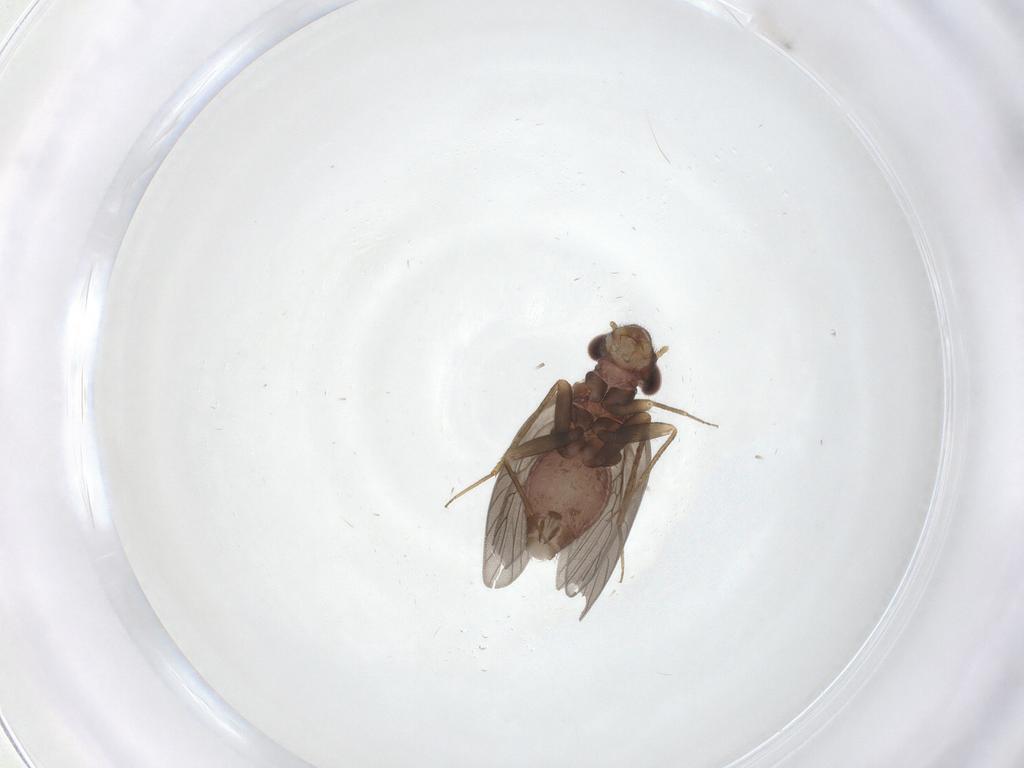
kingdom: Animalia
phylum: Arthropoda
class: Insecta
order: Psocodea
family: Lepidopsocidae
